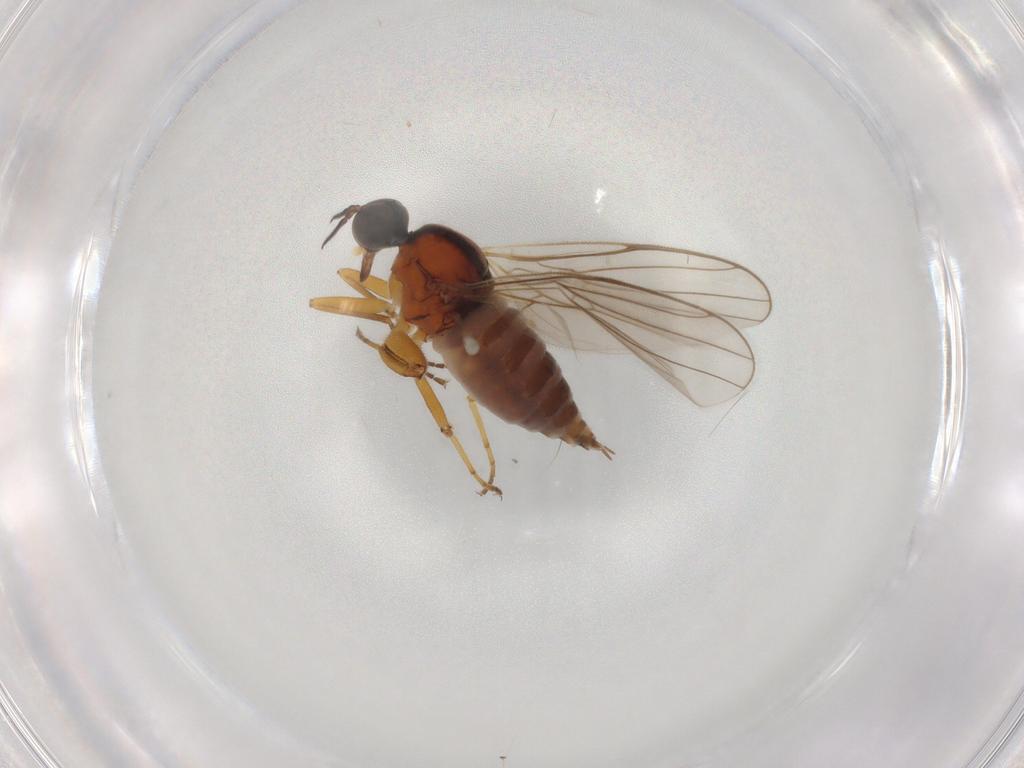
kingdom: Animalia
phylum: Arthropoda
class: Insecta
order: Diptera
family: Hybotidae
